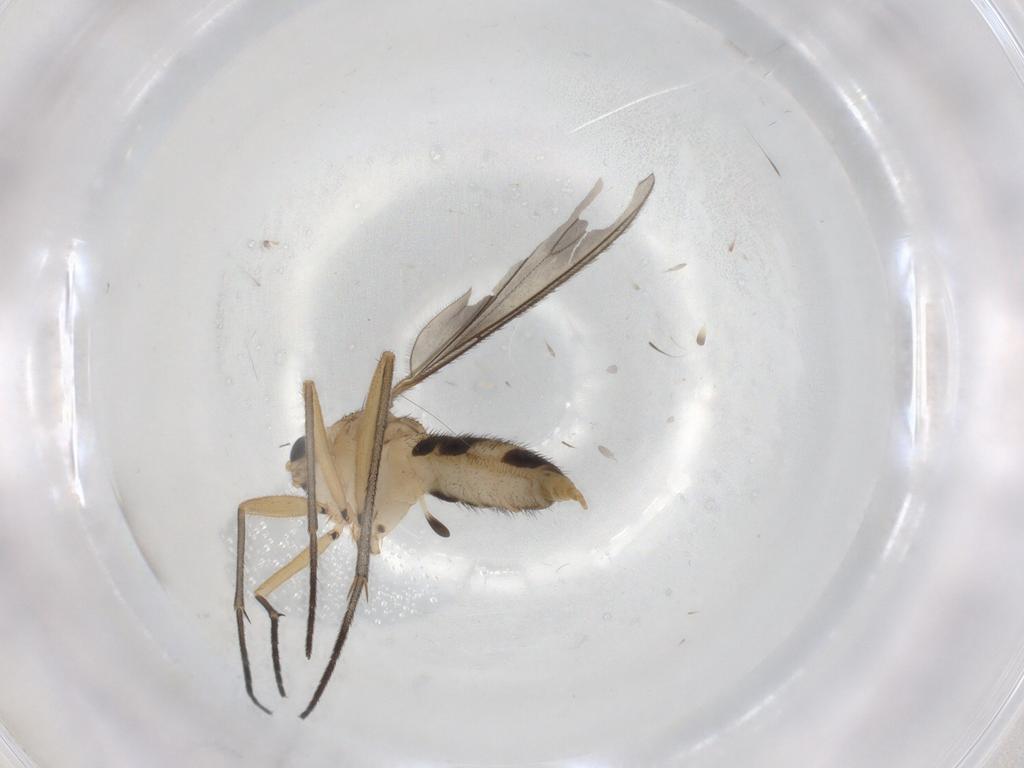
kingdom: Animalia
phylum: Arthropoda
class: Insecta
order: Diptera
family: Sciaridae
